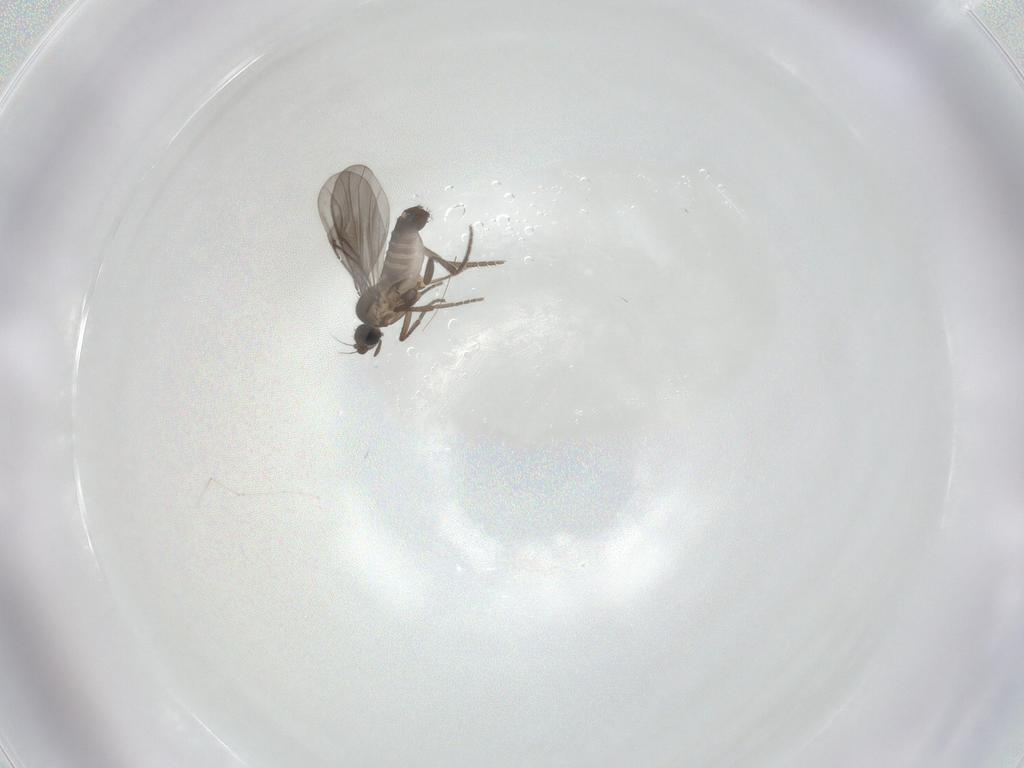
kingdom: Animalia
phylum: Arthropoda
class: Insecta
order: Diptera
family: Phoridae
